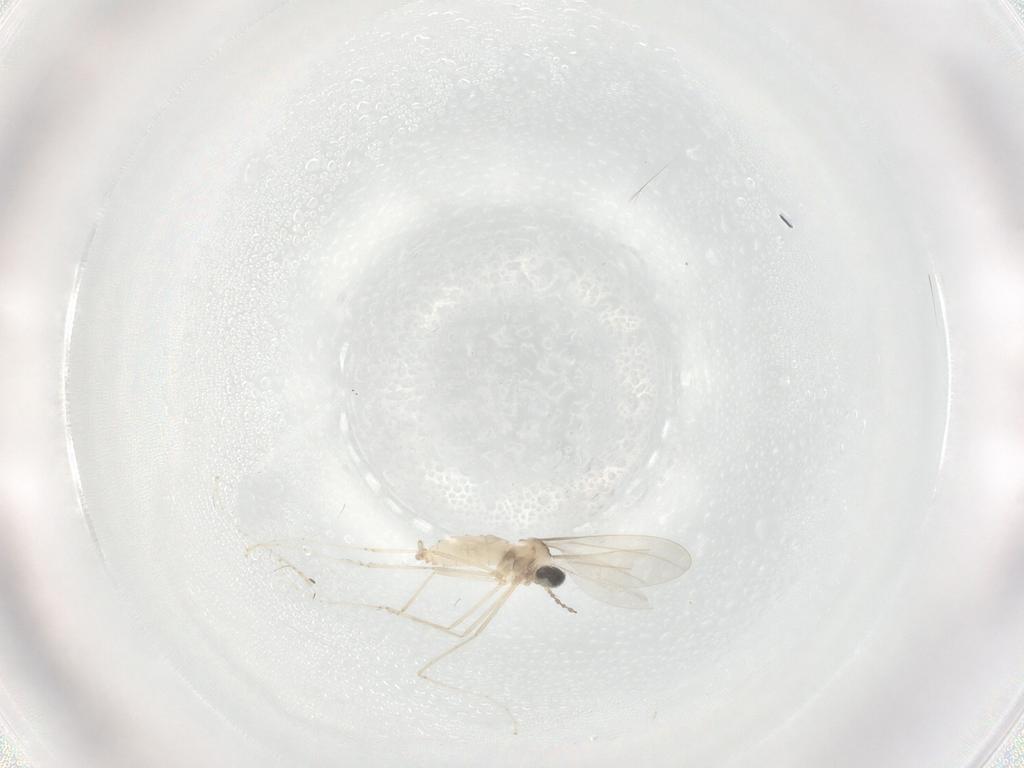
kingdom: Animalia
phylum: Arthropoda
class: Insecta
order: Diptera
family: Cecidomyiidae
